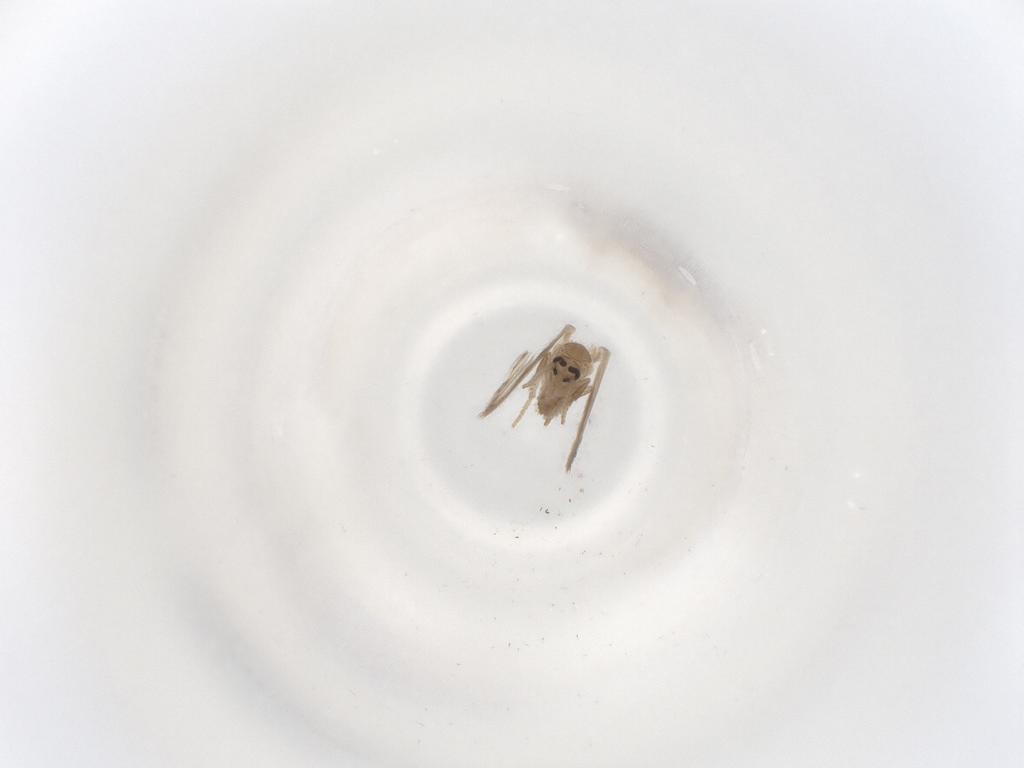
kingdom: Animalia
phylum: Arthropoda
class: Insecta
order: Diptera
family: Psychodidae
